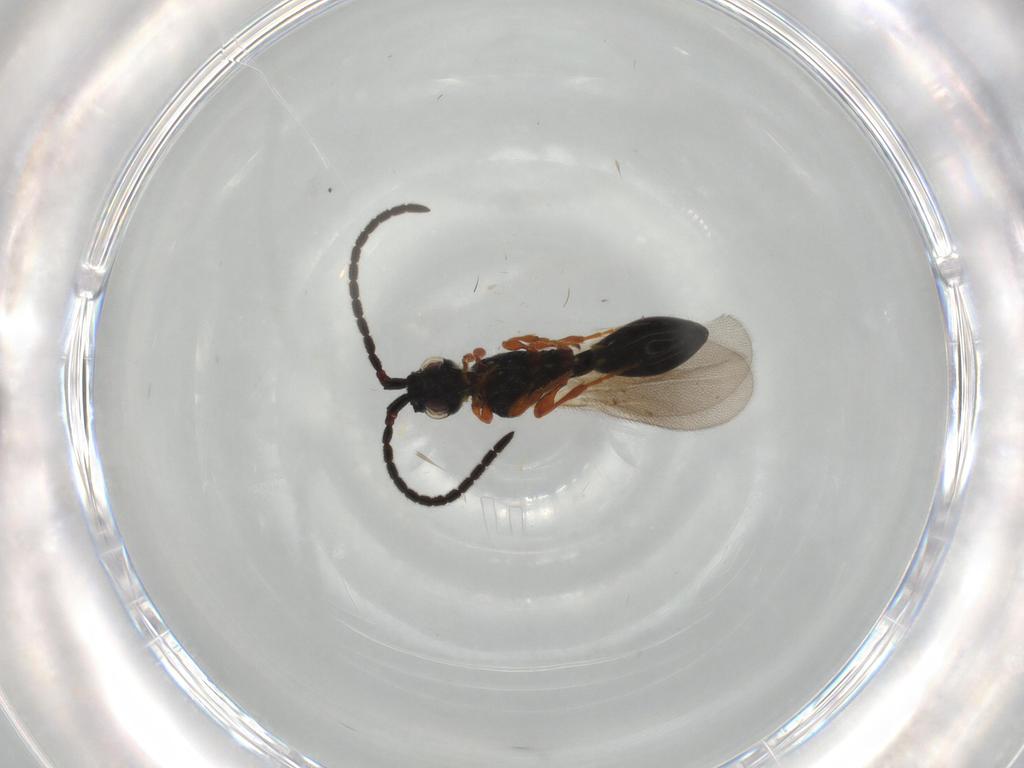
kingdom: Animalia
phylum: Arthropoda
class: Insecta
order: Hymenoptera
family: Diapriidae
